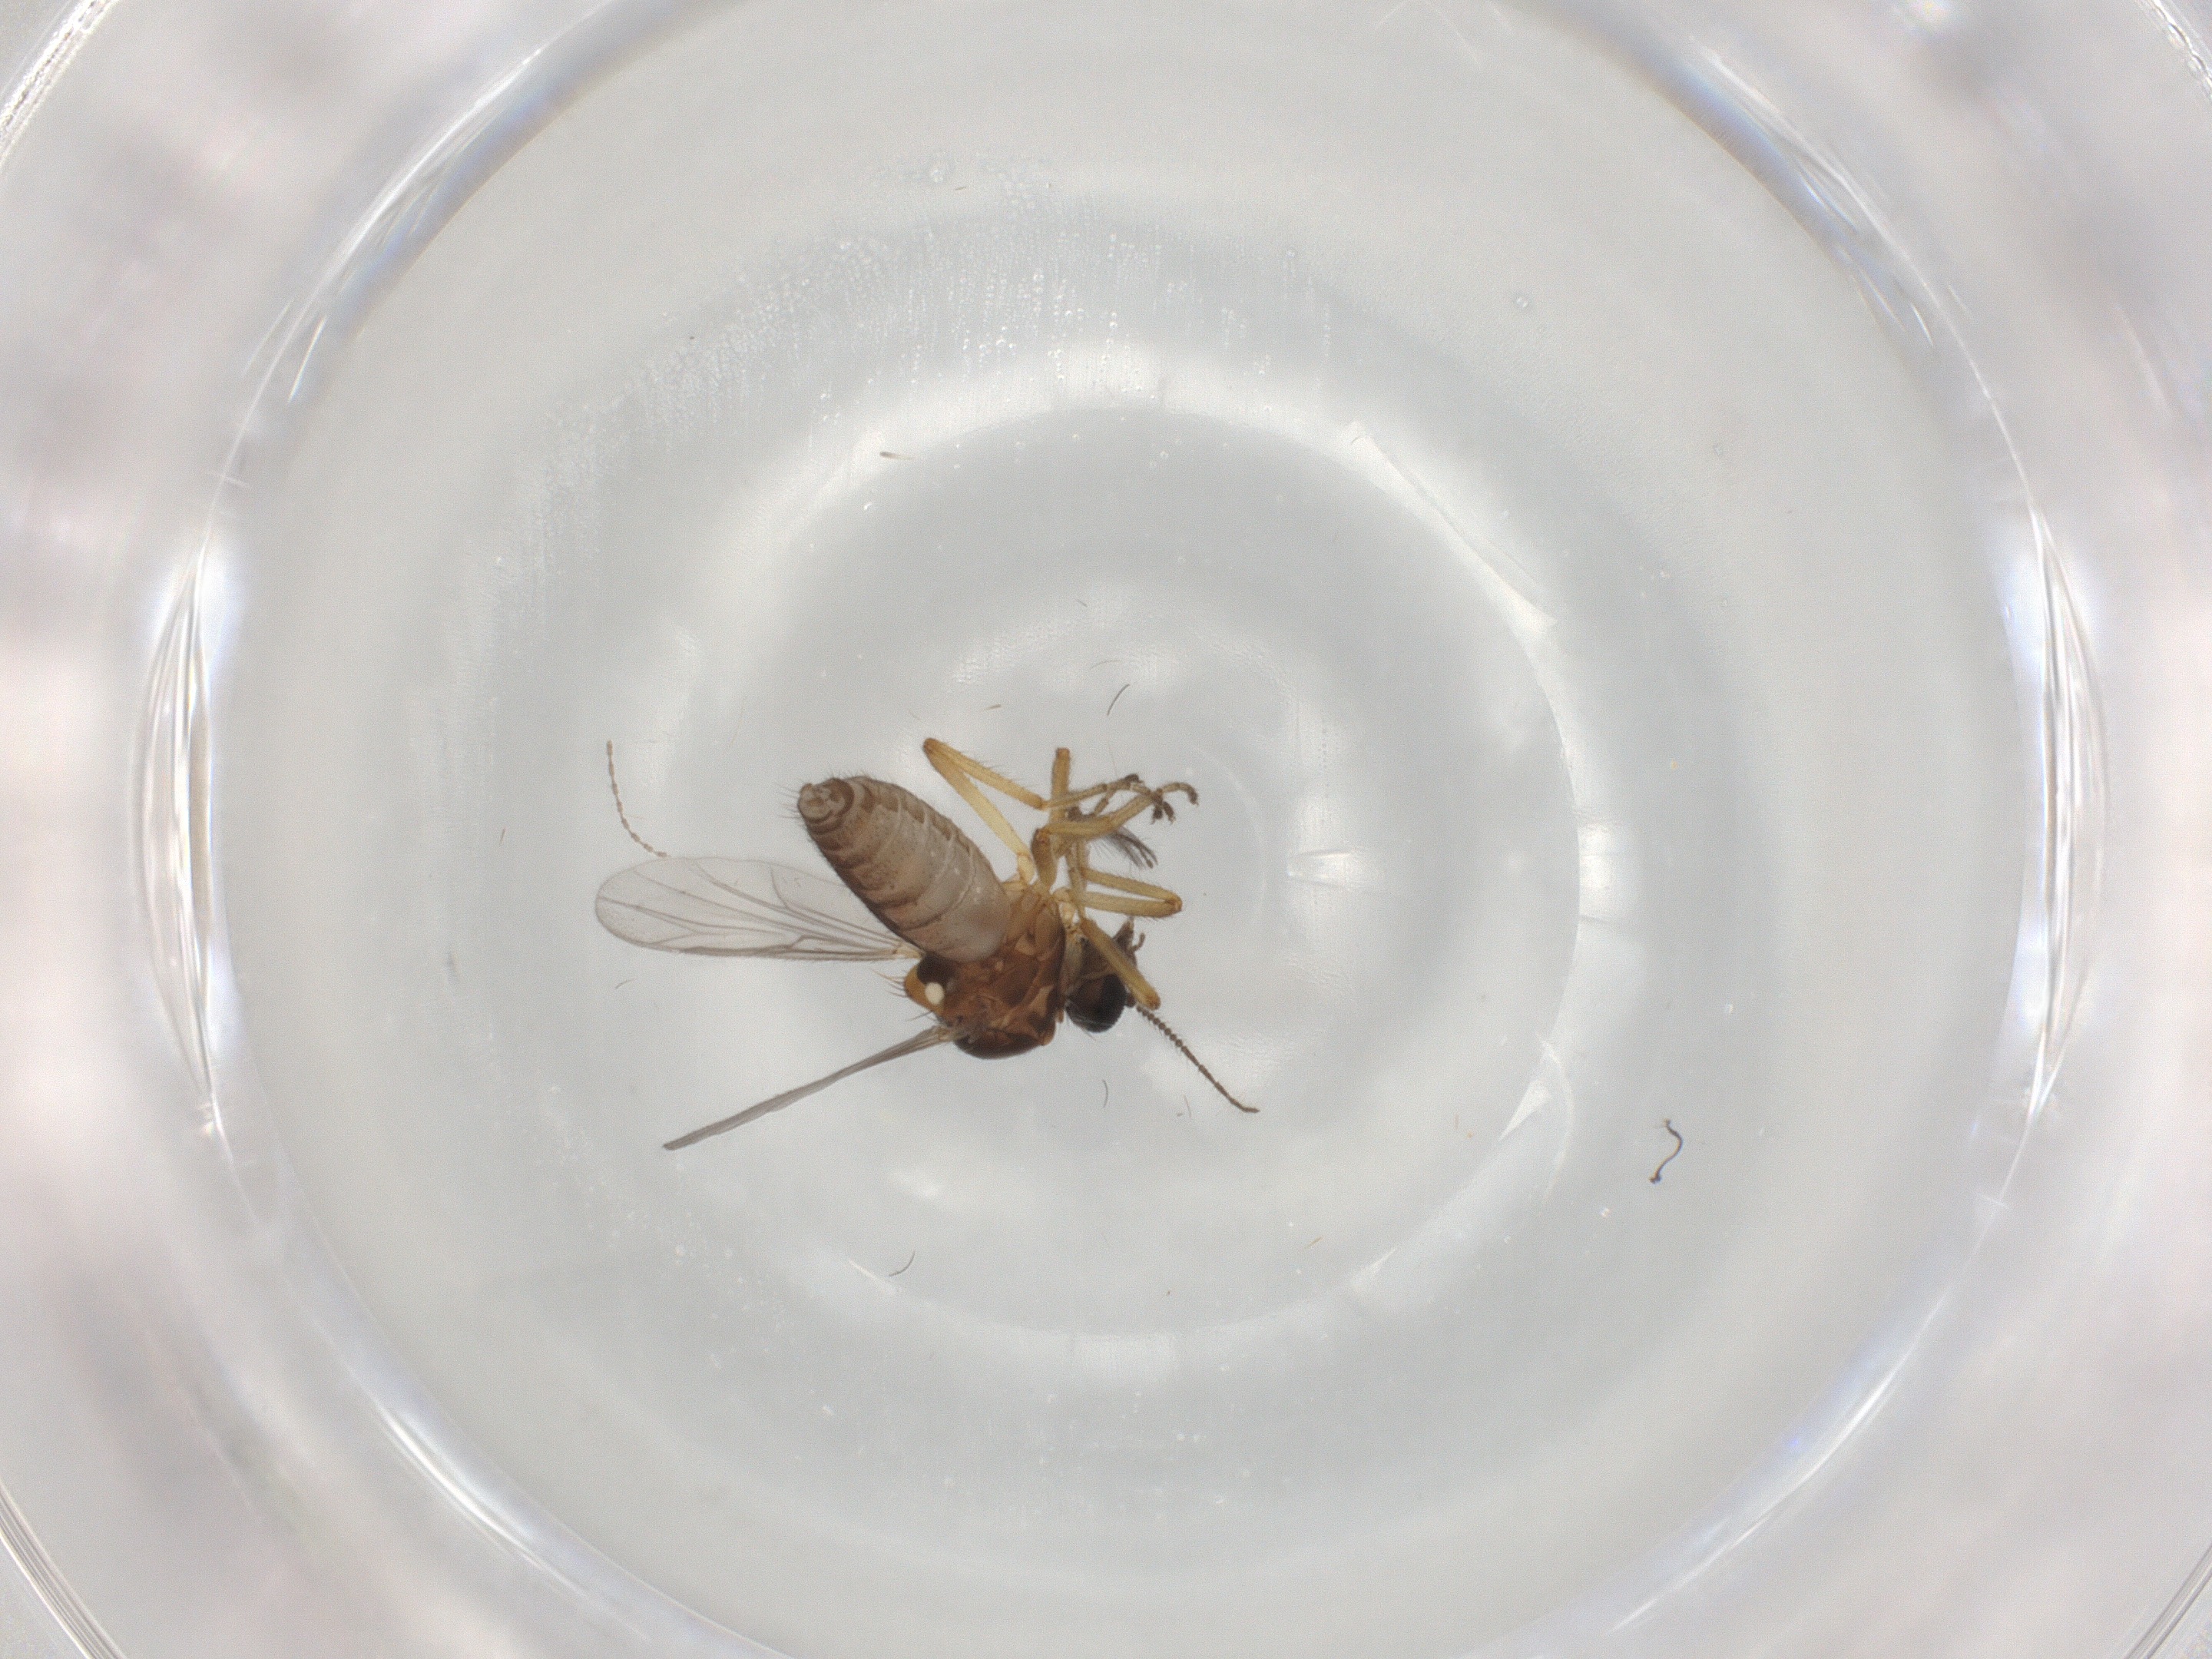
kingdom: Animalia
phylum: Arthropoda
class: Insecta
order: Diptera
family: Ceratopogonidae
